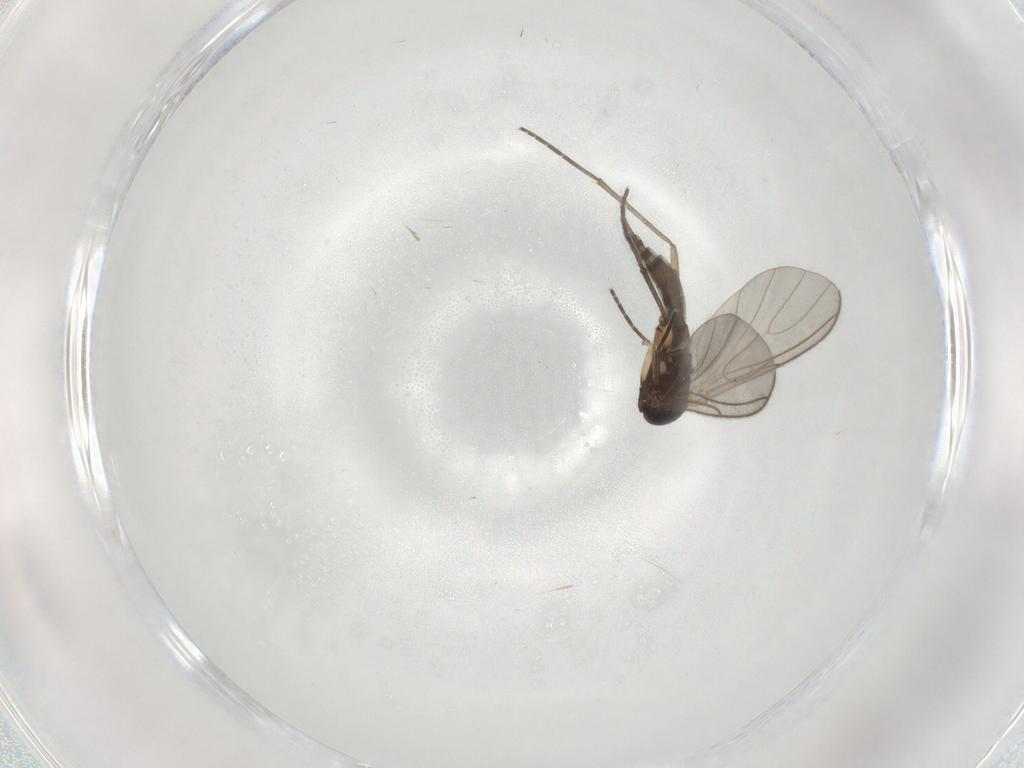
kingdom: Animalia
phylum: Arthropoda
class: Insecta
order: Diptera
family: Sciaridae
